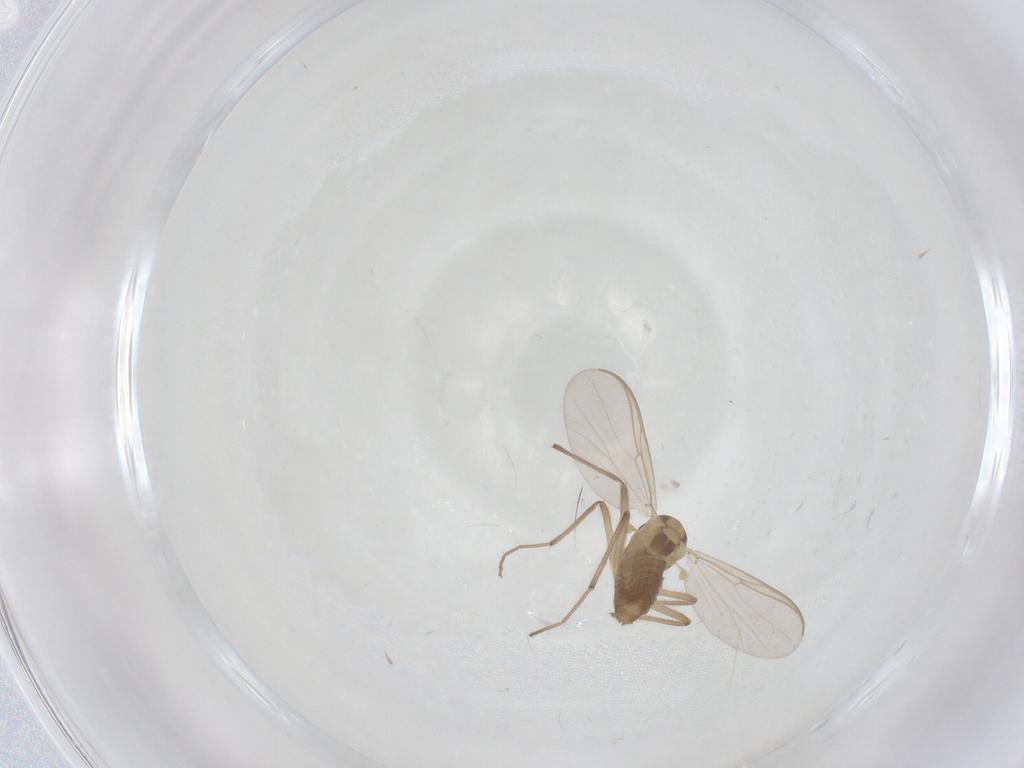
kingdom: Animalia
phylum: Arthropoda
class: Insecta
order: Diptera
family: Chironomidae
